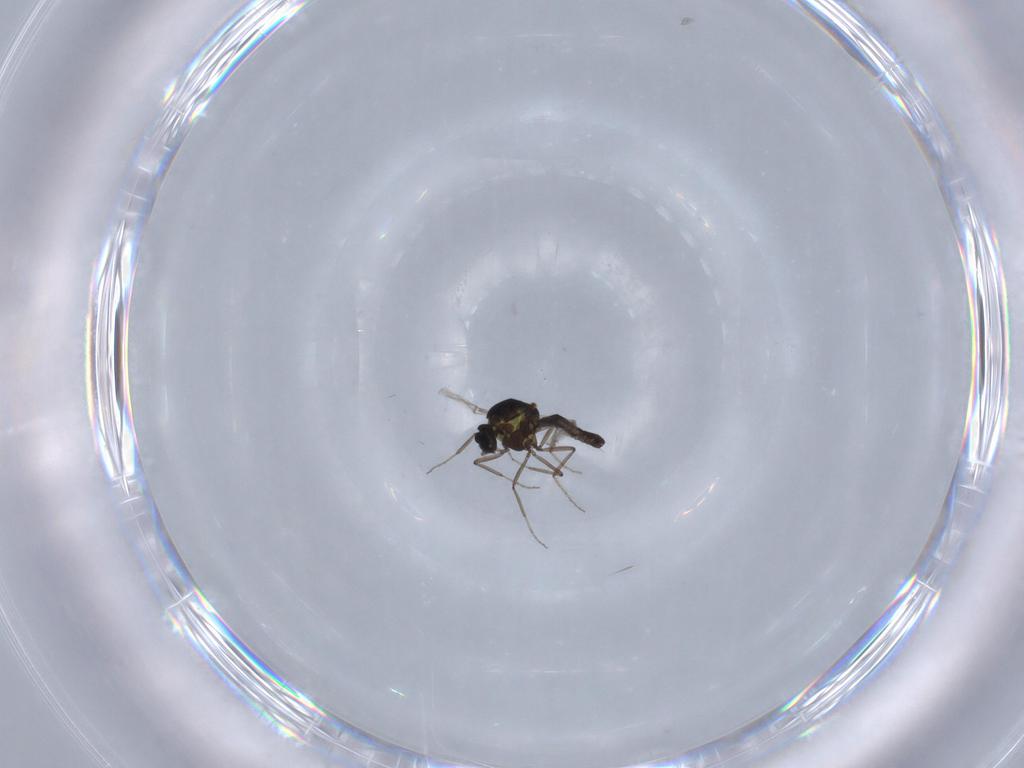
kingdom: Animalia
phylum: Arthropoda
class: Insecta
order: Diptera
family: Ceratopogonidae
